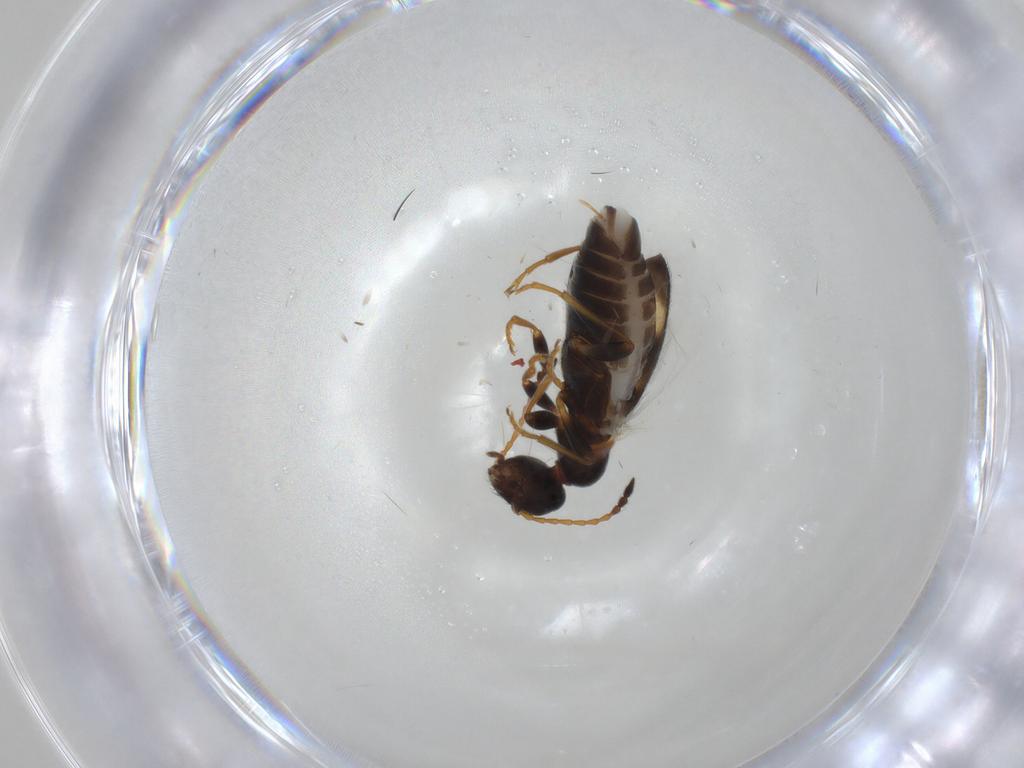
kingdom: Animalia
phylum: Arthropoda
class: Insecta
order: Coleoptera
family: Anthicidae
